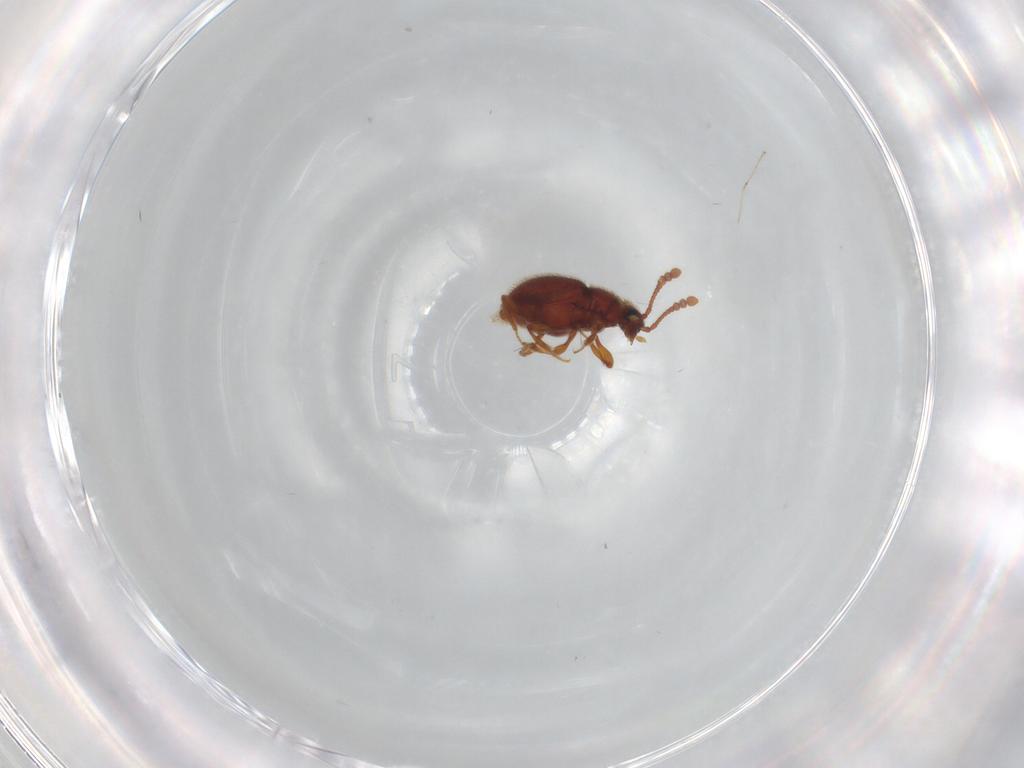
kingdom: Animalia
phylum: Arthropoda
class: Insecta
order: Coleoptera
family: Staphylinidae
